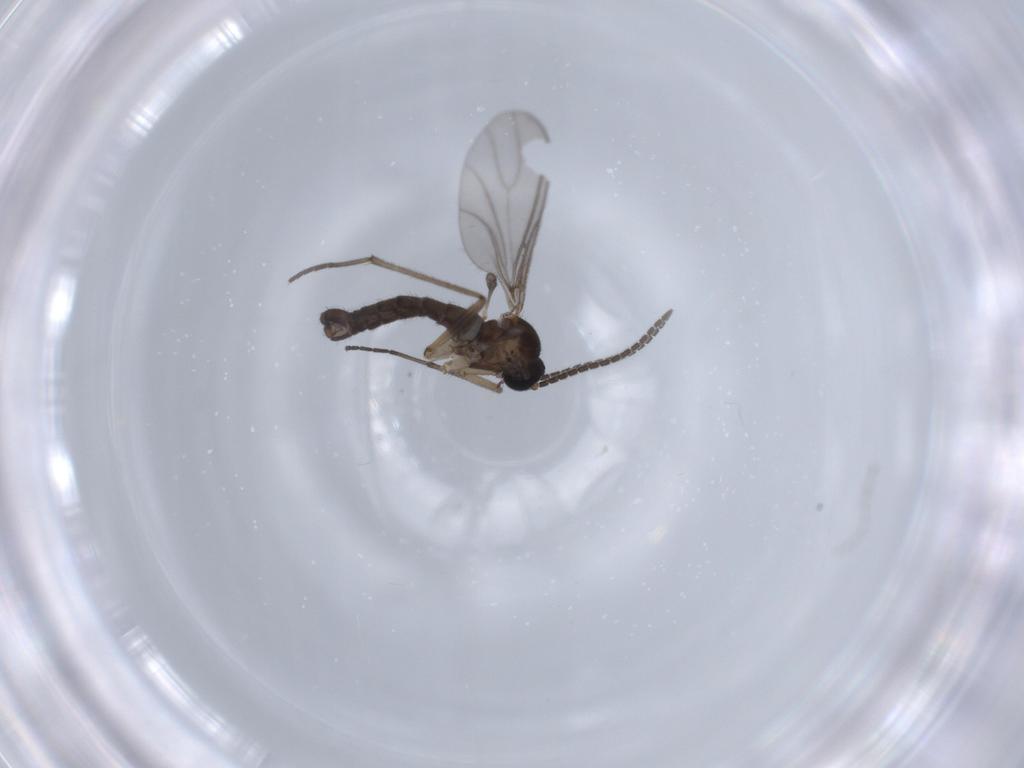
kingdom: Animalia
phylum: Arthropoda
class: Insecta
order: Diptera
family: Sciaridae
